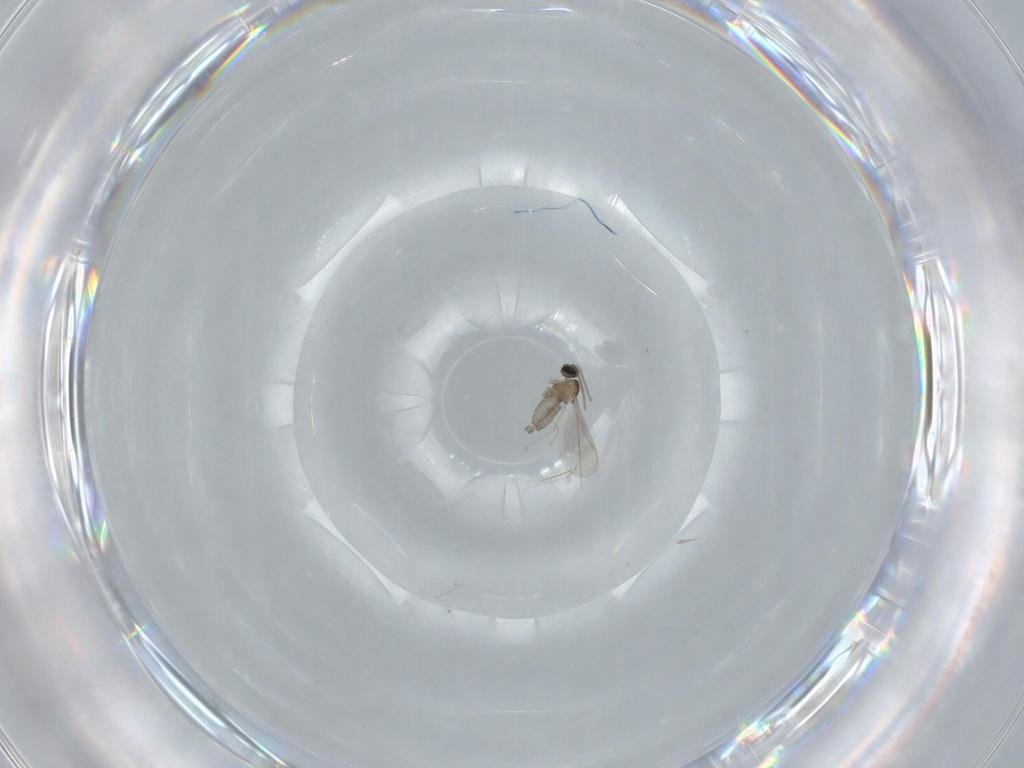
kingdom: Animalia
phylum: Arthropoda
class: Insecta
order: Diptera
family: Cecidomyiidae
